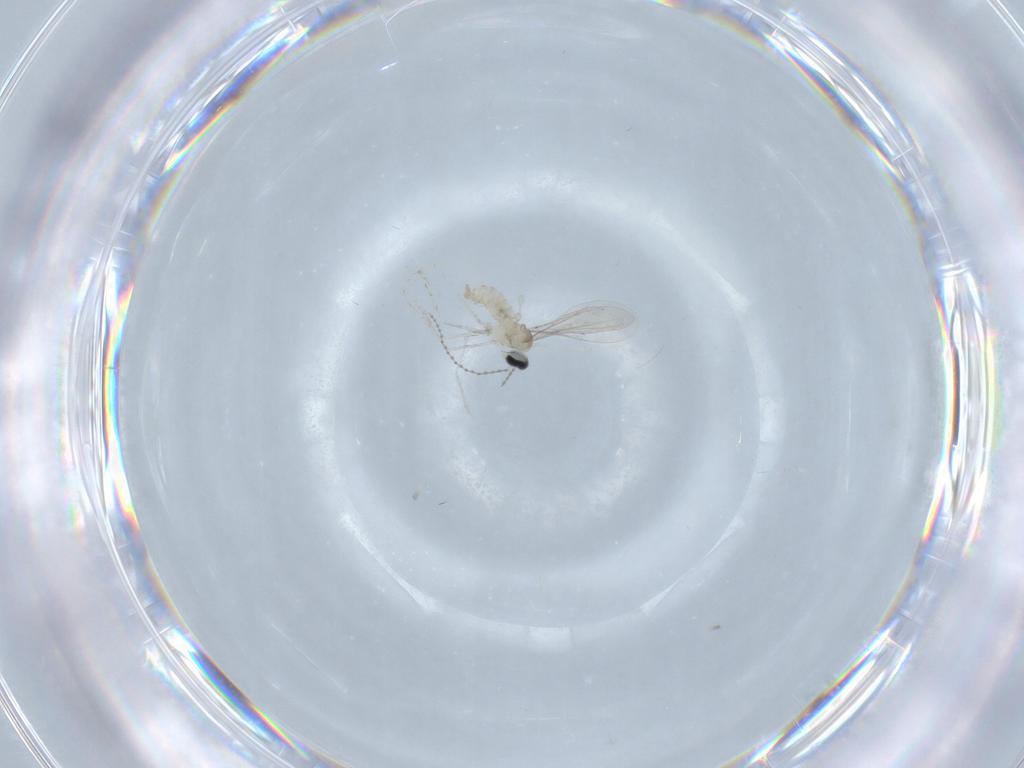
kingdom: Animalia
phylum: Arthropoda
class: Insecta
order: Diptera
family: Cecidomyiidae
